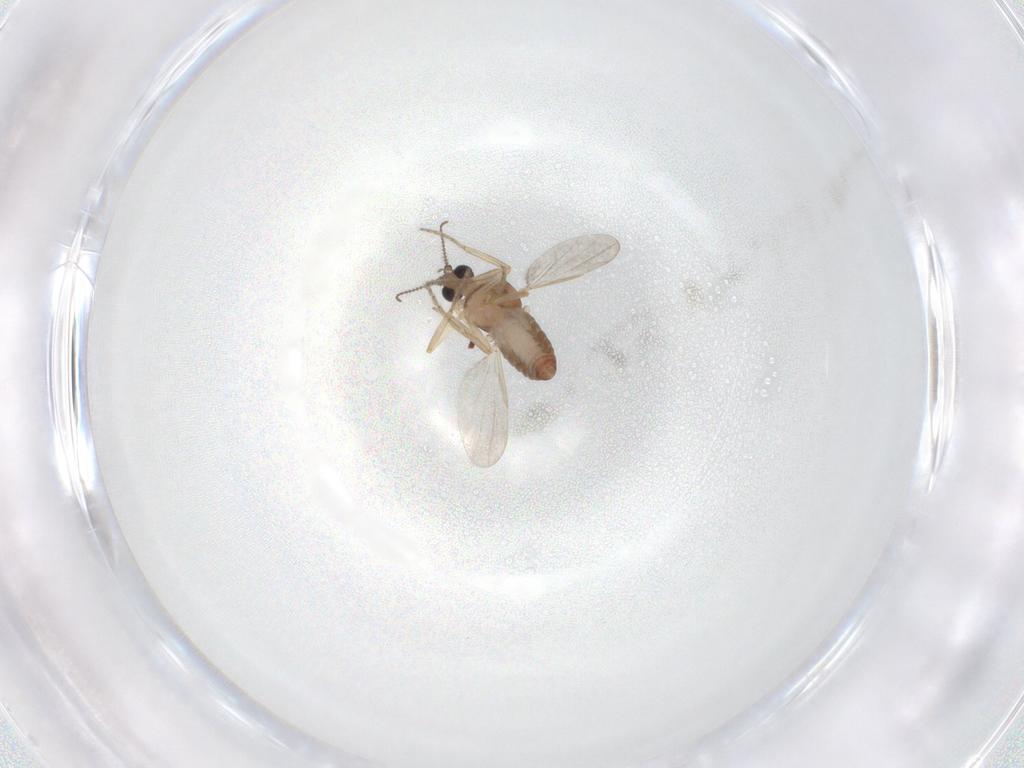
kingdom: Animalia
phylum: Arthropoda
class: Insecta
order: Diptera
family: Ceratopogonidae
